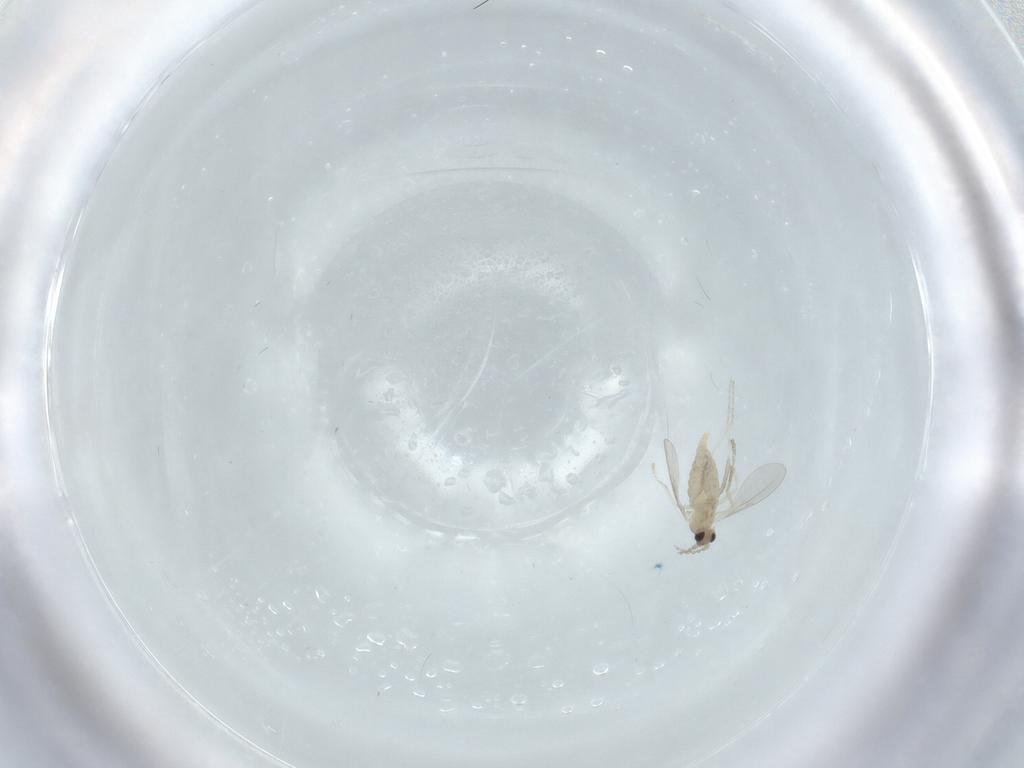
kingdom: Animalia
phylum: Arthropoda
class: Insecta
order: Diptera
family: Cecidomyiidae
